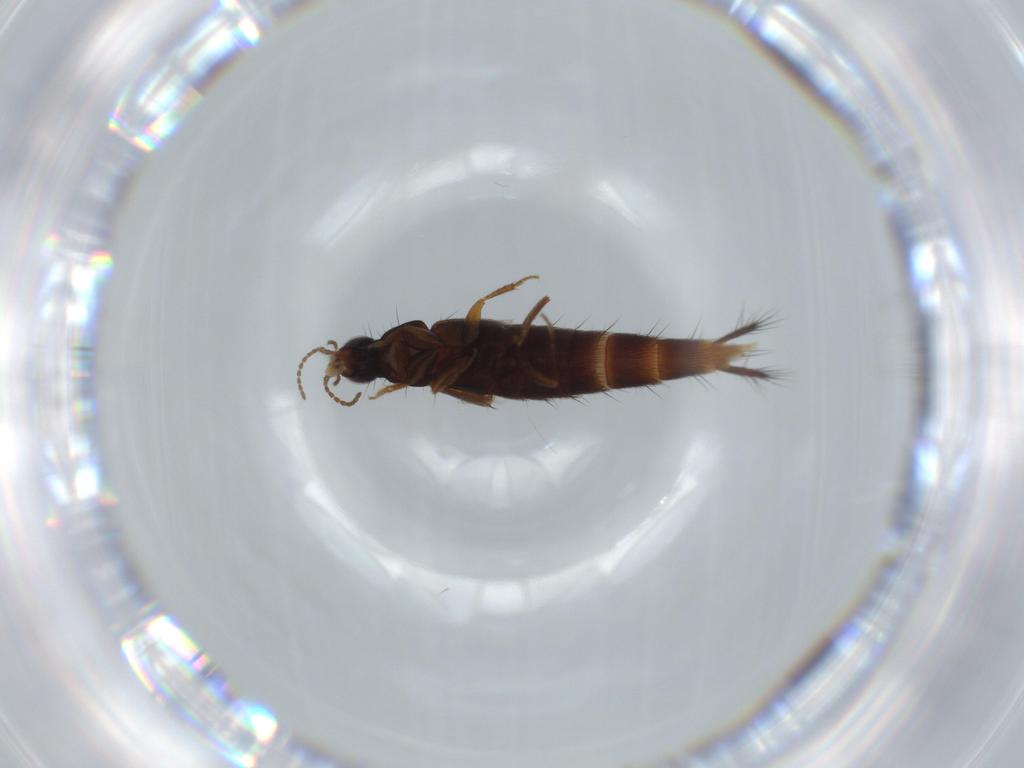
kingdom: Animalia
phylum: Arthropoda
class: Insecta
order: Coleoptera
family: Staphylinidae
